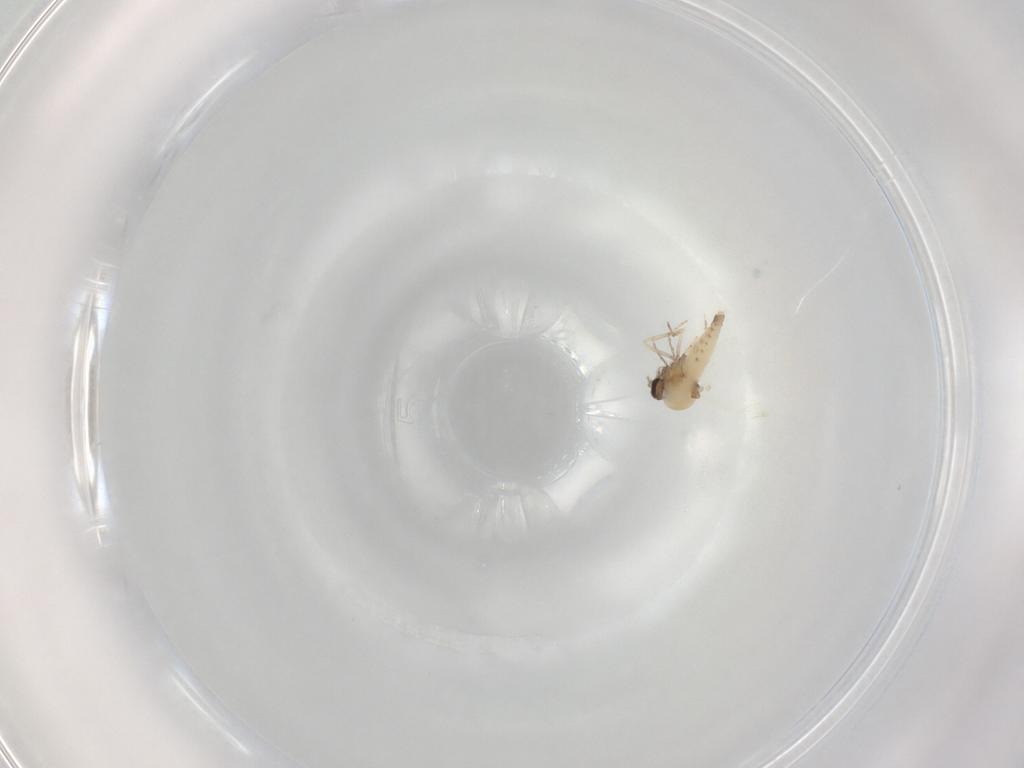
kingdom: Animalia
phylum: Arthropoda
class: Insecta
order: Diptera
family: Ceratopogonidae
